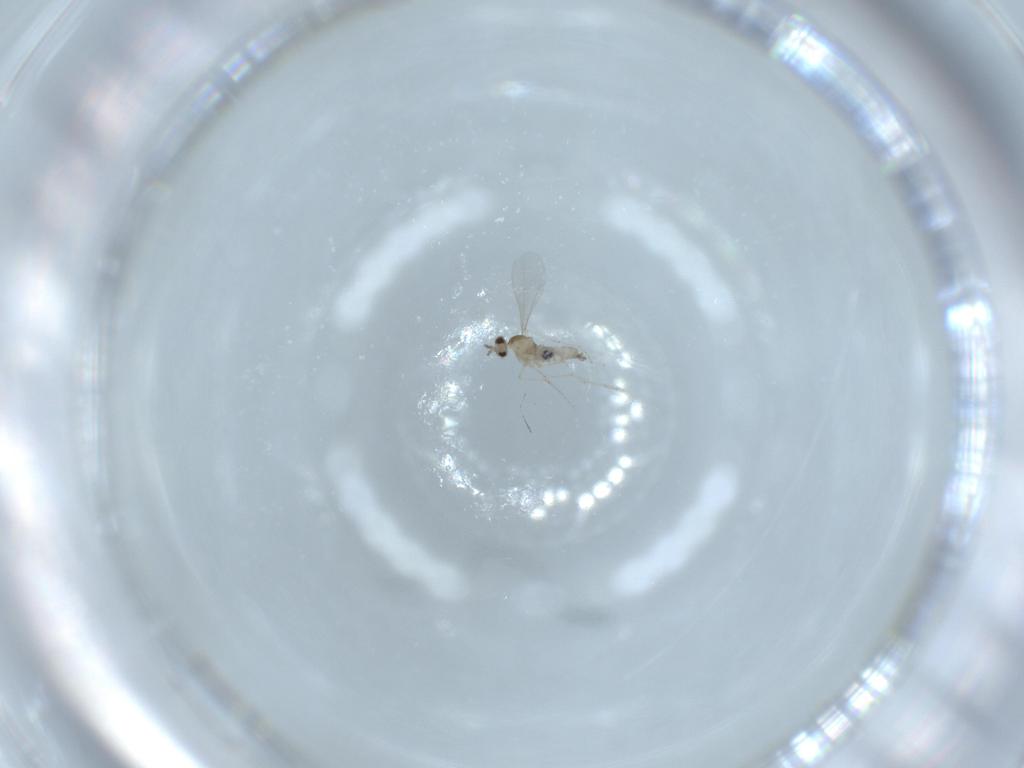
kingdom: Animalia
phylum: Arthropoda
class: Insecta
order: Diptera
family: Cecidomyiidae
